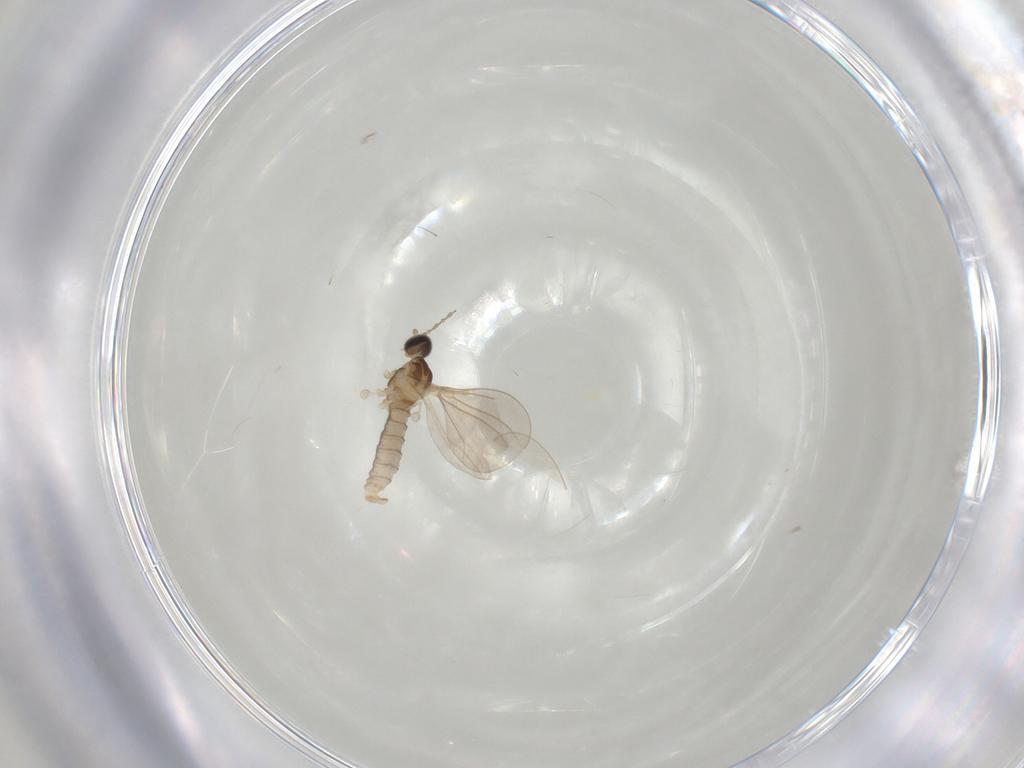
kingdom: Animalia
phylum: Arthropoda
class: Insecta
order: Diptera
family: Cecidomyiidae
